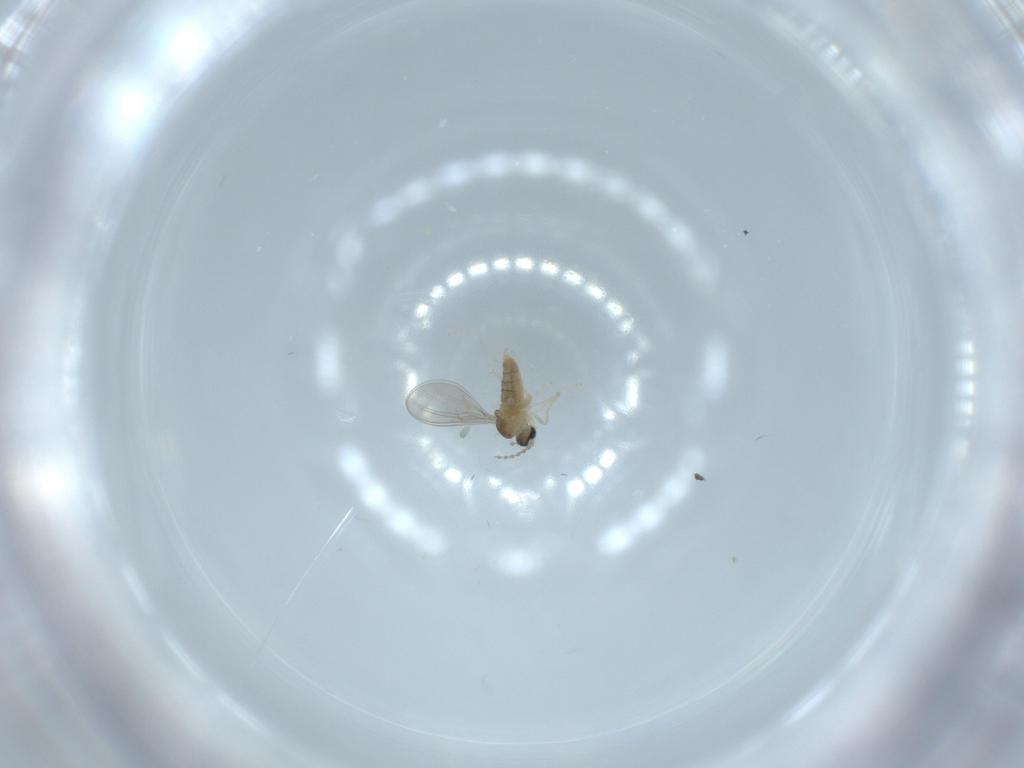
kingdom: Animalia
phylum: Arthropoda
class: Insecta
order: Diptera
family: Cecidomyiidae
